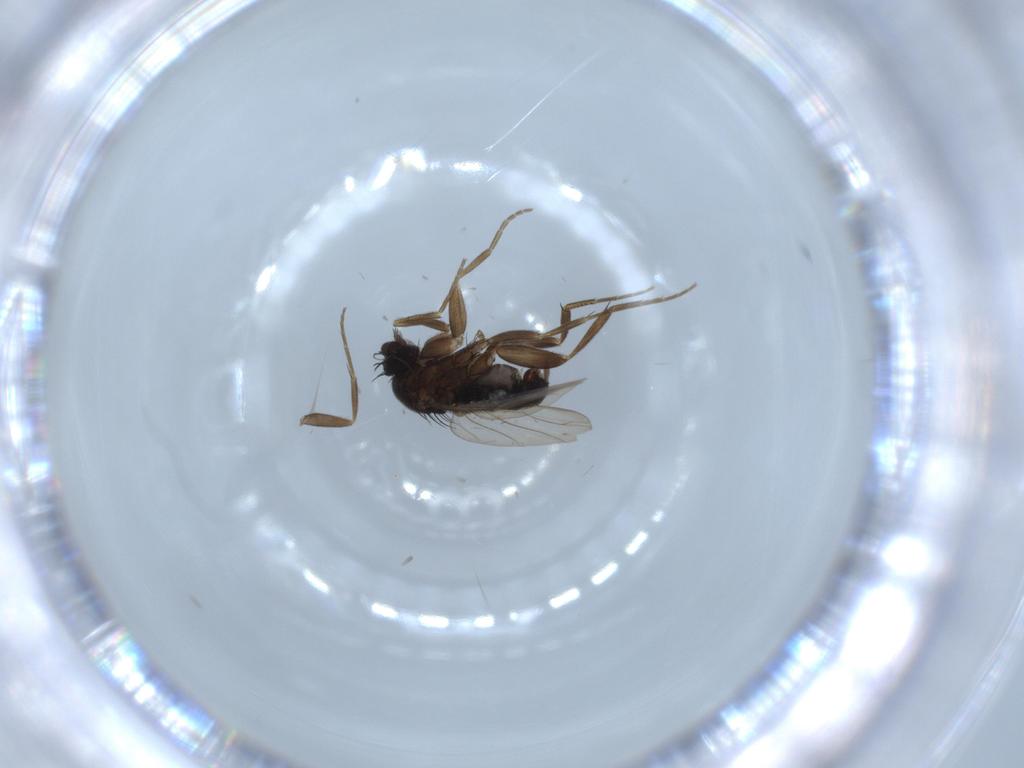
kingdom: Animalia
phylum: Arthropoda
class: Insecta
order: Diptera
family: Phoridae
